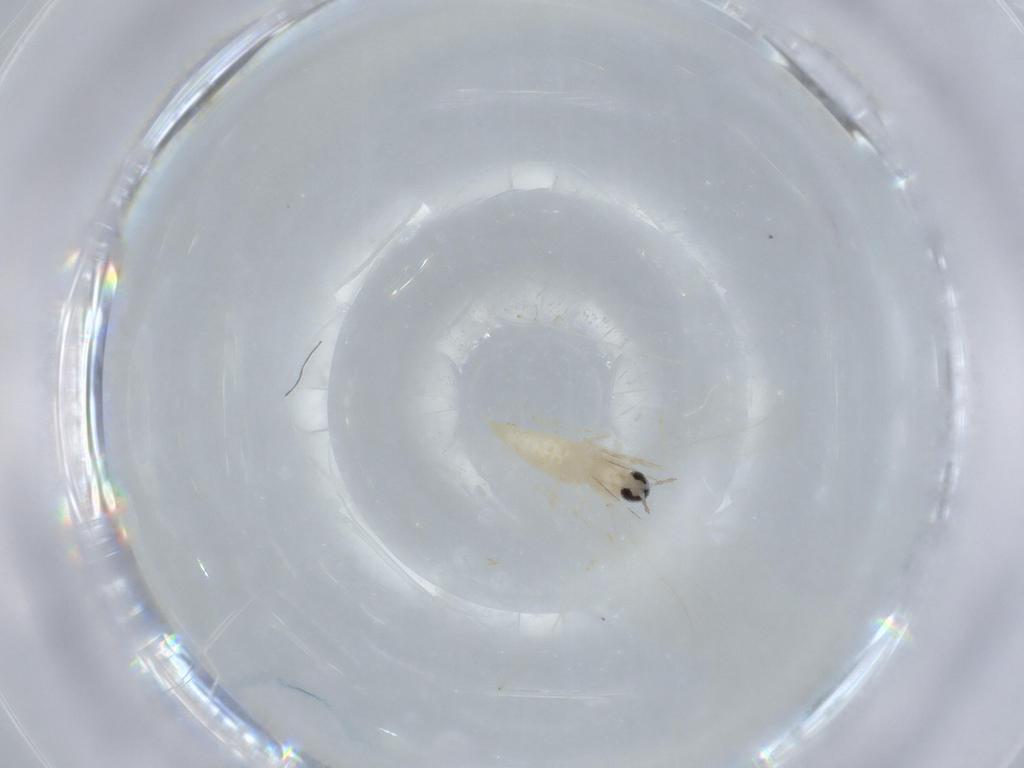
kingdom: Animalia
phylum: Arthropoda
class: Insecta
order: Diptera
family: Cecidomyiidae
